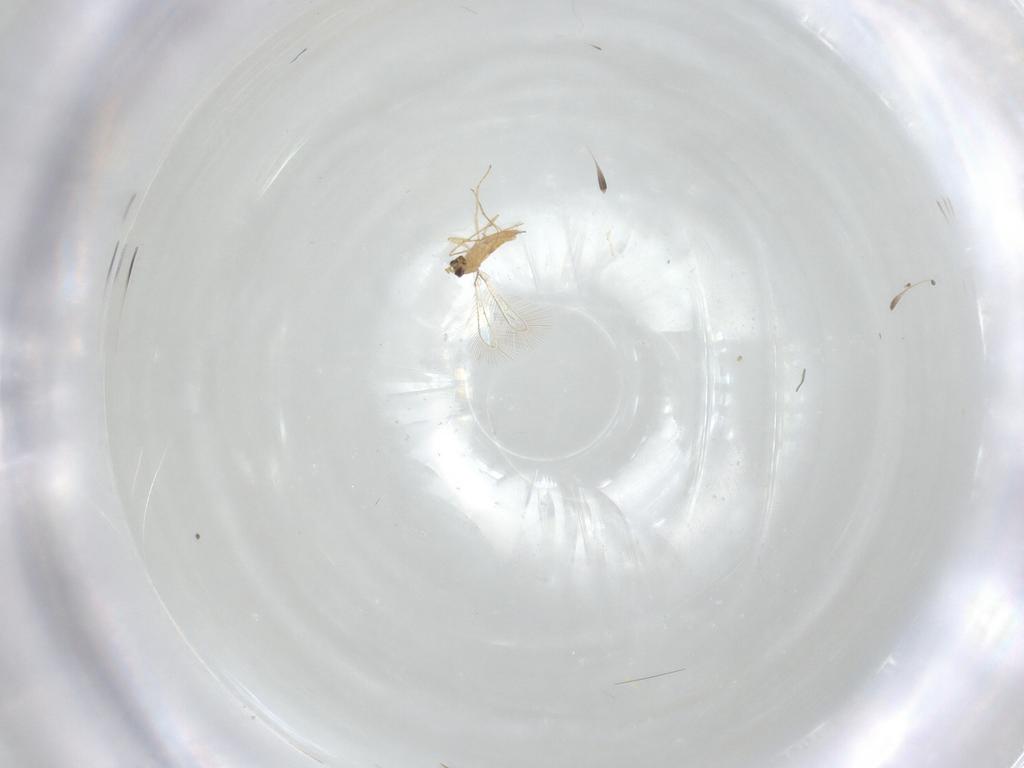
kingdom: Animalia
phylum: Arthropoda
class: Insecta
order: Hymenoptera
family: Mymaridae
